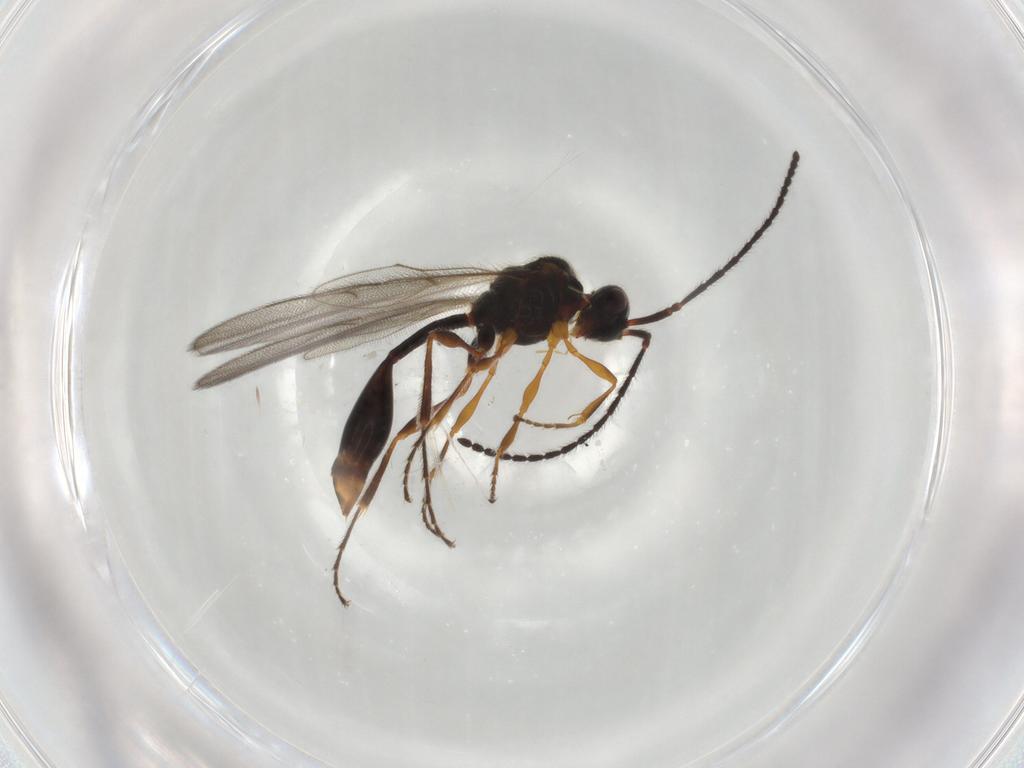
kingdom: Animalia
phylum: Arthropoda
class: Insecta
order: Hymenoptera
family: Diapriidae
